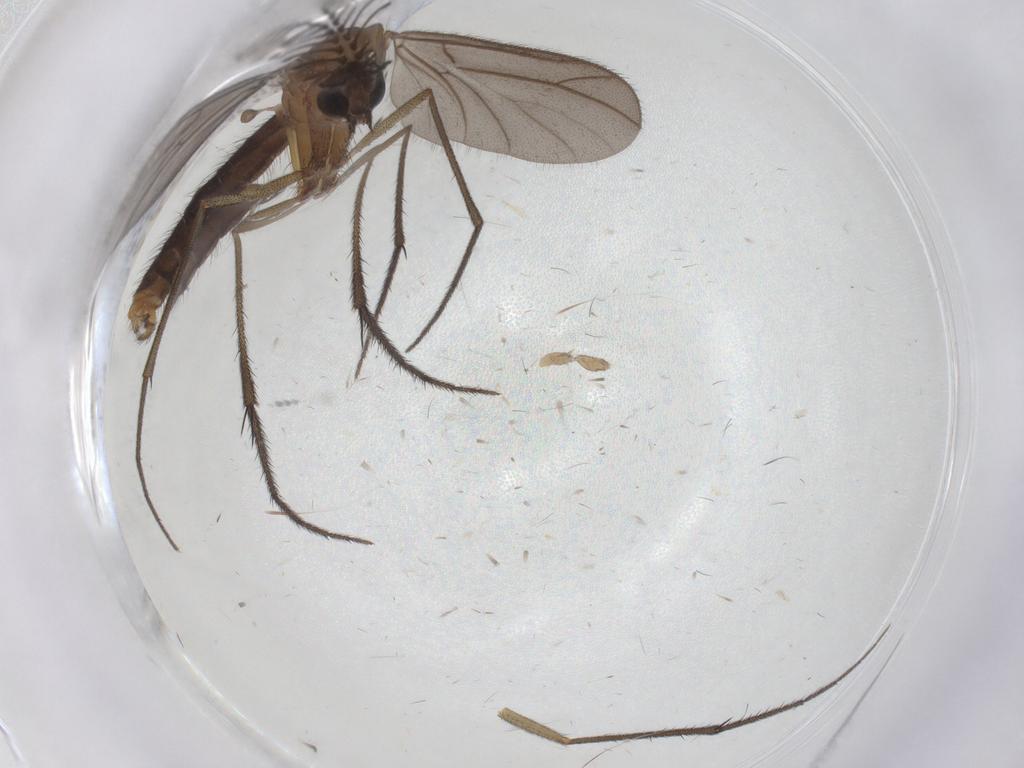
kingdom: Animalia
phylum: Arthropoda
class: Insecta
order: Diptera
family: Ditomyiidae
